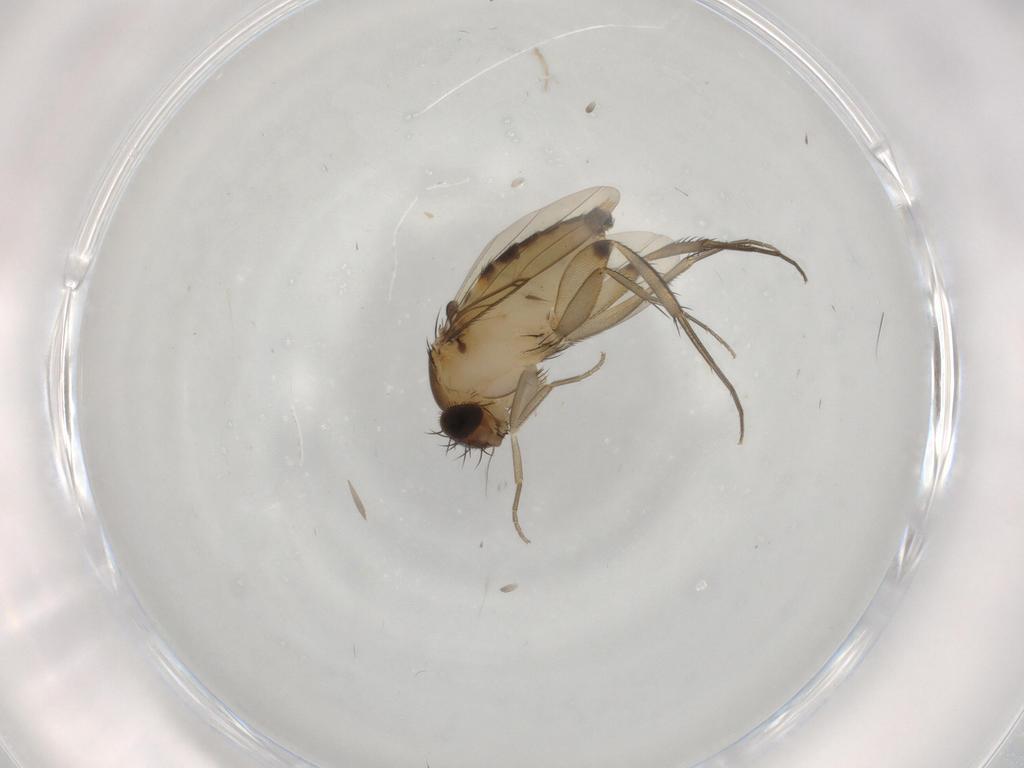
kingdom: Animalia
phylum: Arthropoda
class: Insecta
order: Diptera
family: Phoridae
